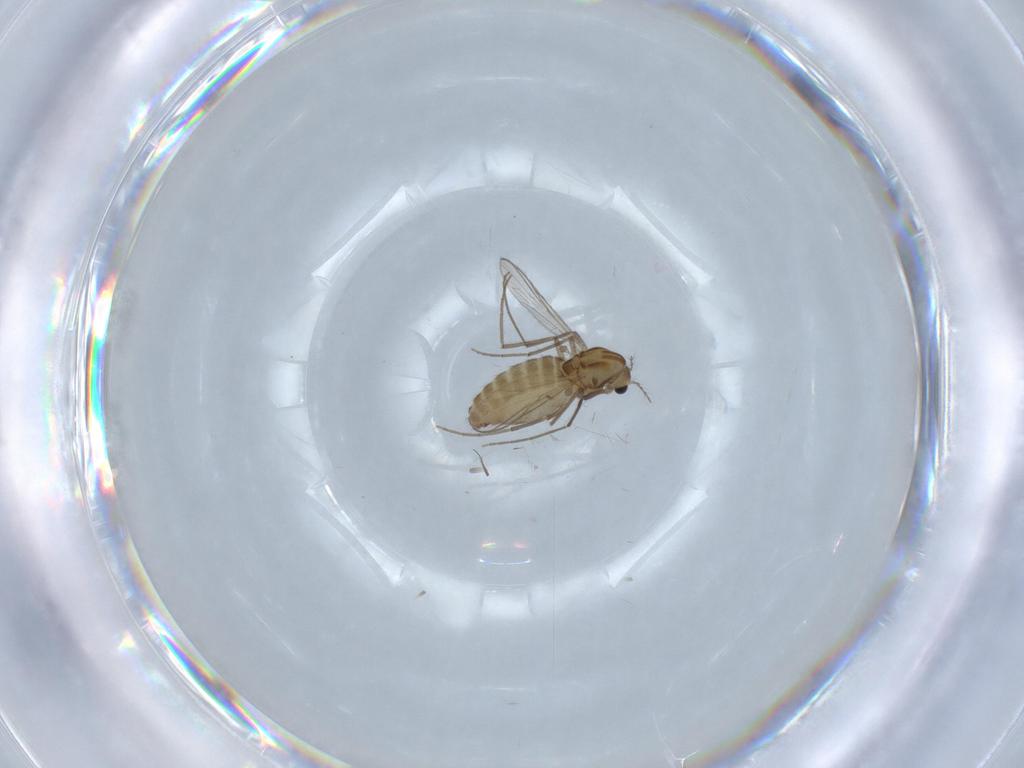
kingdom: Animalia
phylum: Arthropoda
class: Insecta
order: Diptera
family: Chironomidae
